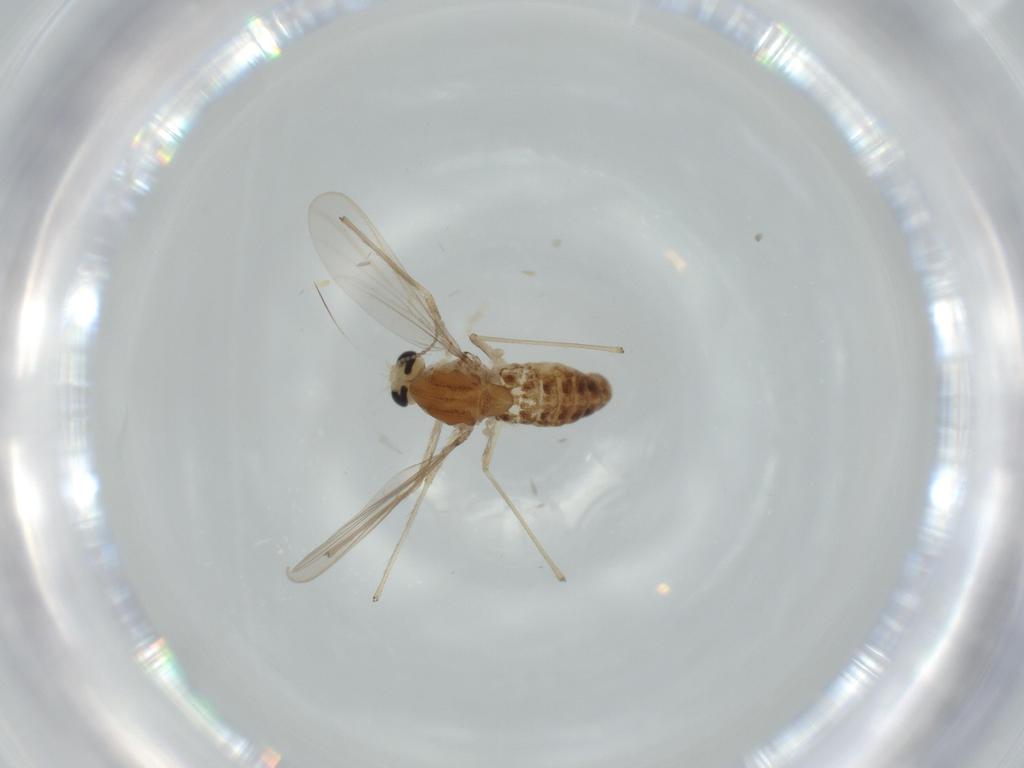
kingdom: Animalia
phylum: Arthropoda
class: Insecta
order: Diptera
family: Chironomidae
